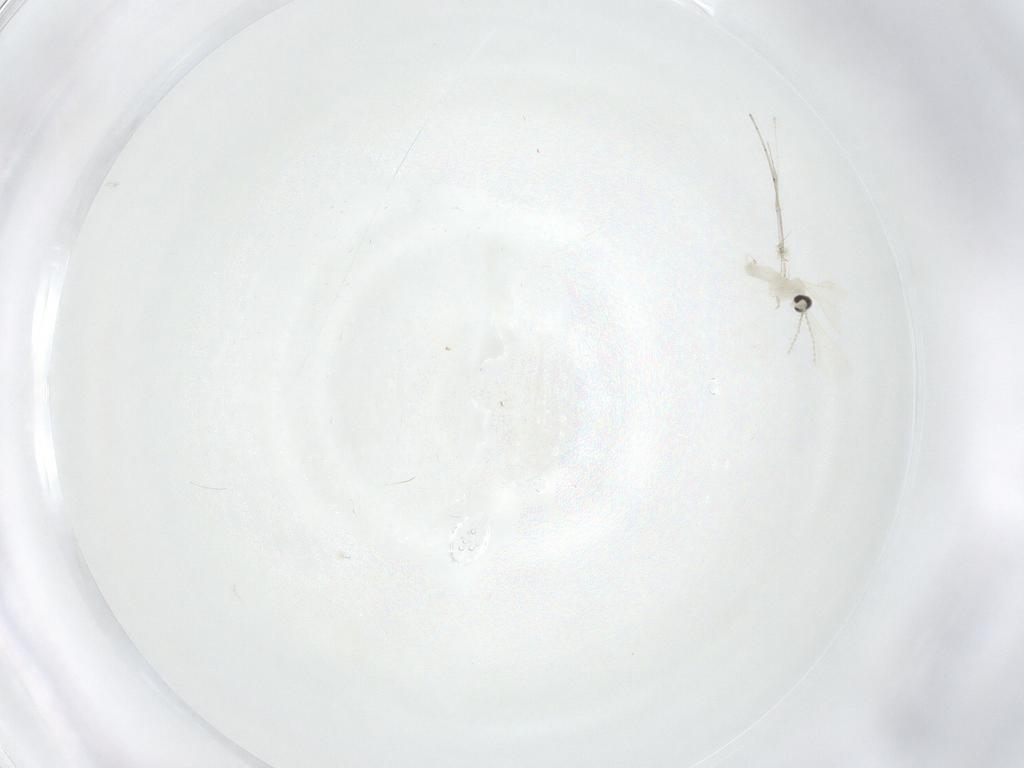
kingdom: Animalia
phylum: Arthropoda
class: Insecta
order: Diptera
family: Cecidomyiidae
